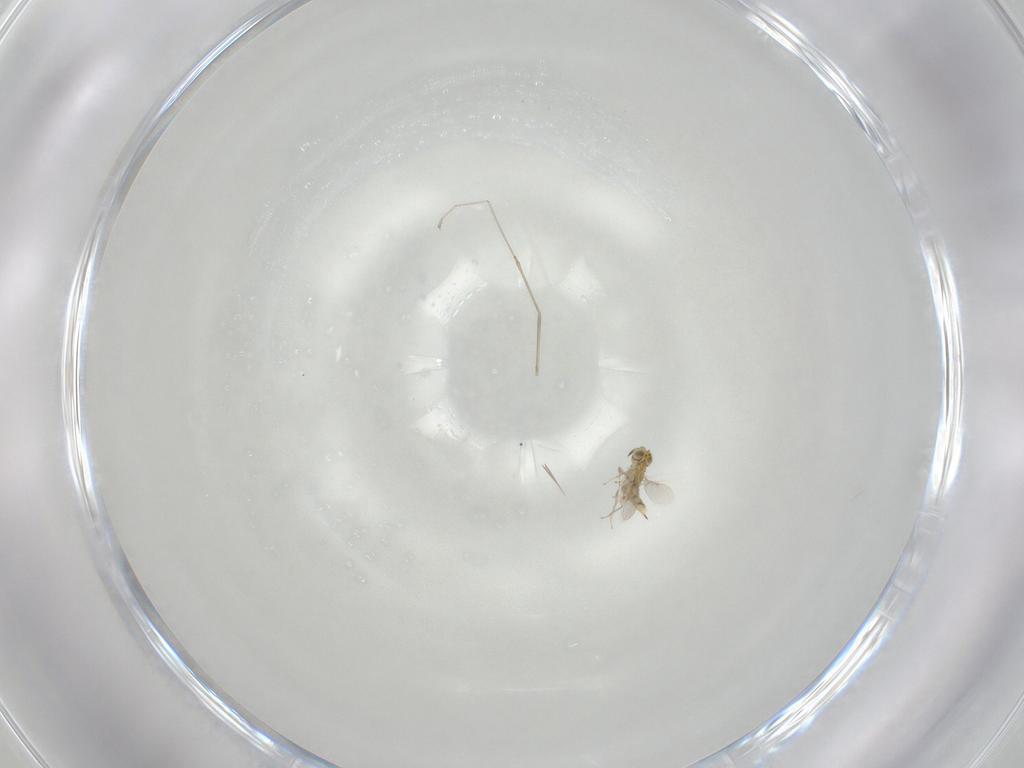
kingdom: Animalia
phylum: Arthropoda
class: Insecta
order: Hymenoptera
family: Aphelinidae
